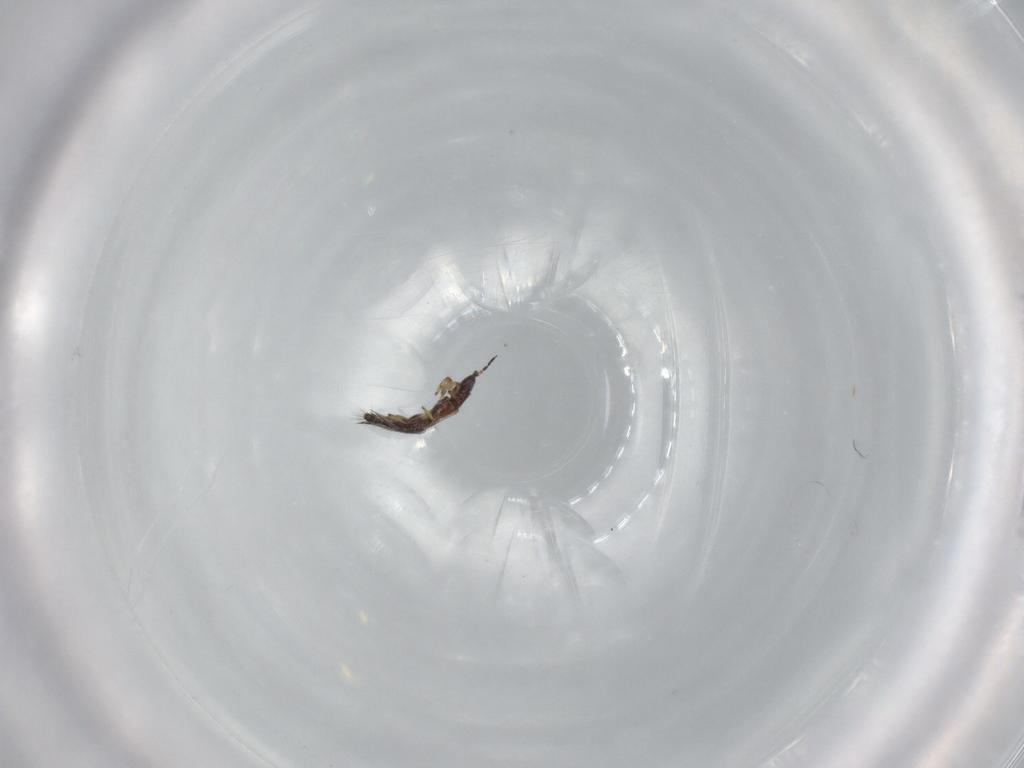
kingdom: Animalia
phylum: Arthropoda
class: Insecta
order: Thysanoptera
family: Thripidae
